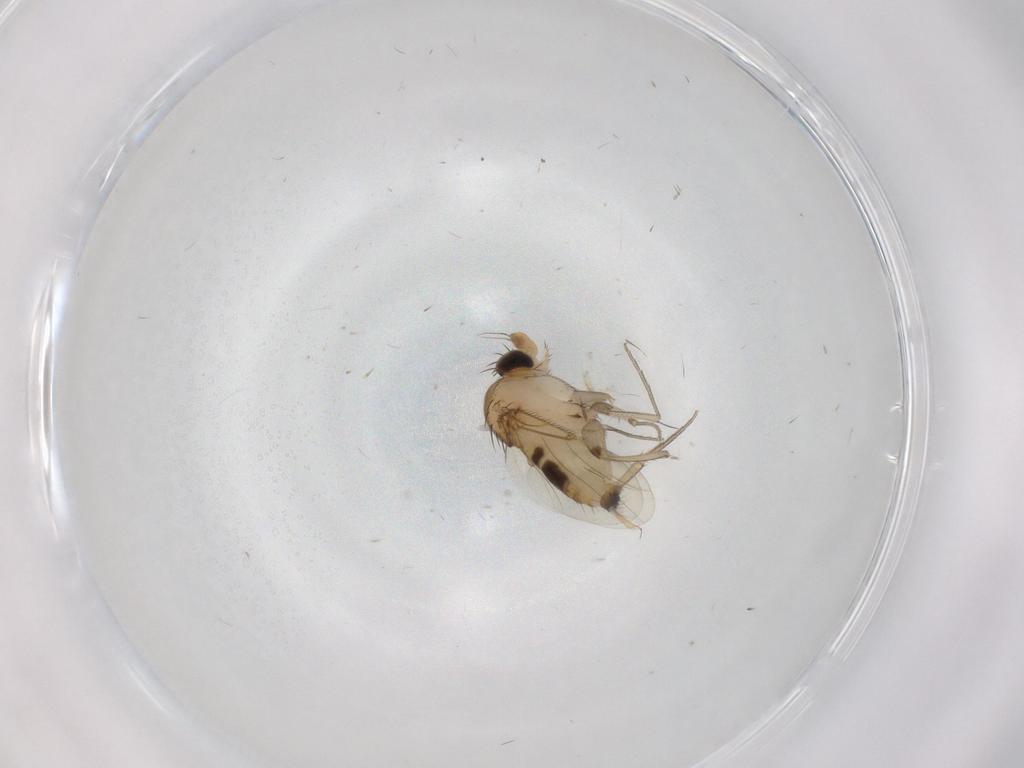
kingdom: Animalia
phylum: Arthropoda
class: Insecta
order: Diptera
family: Phoridae
